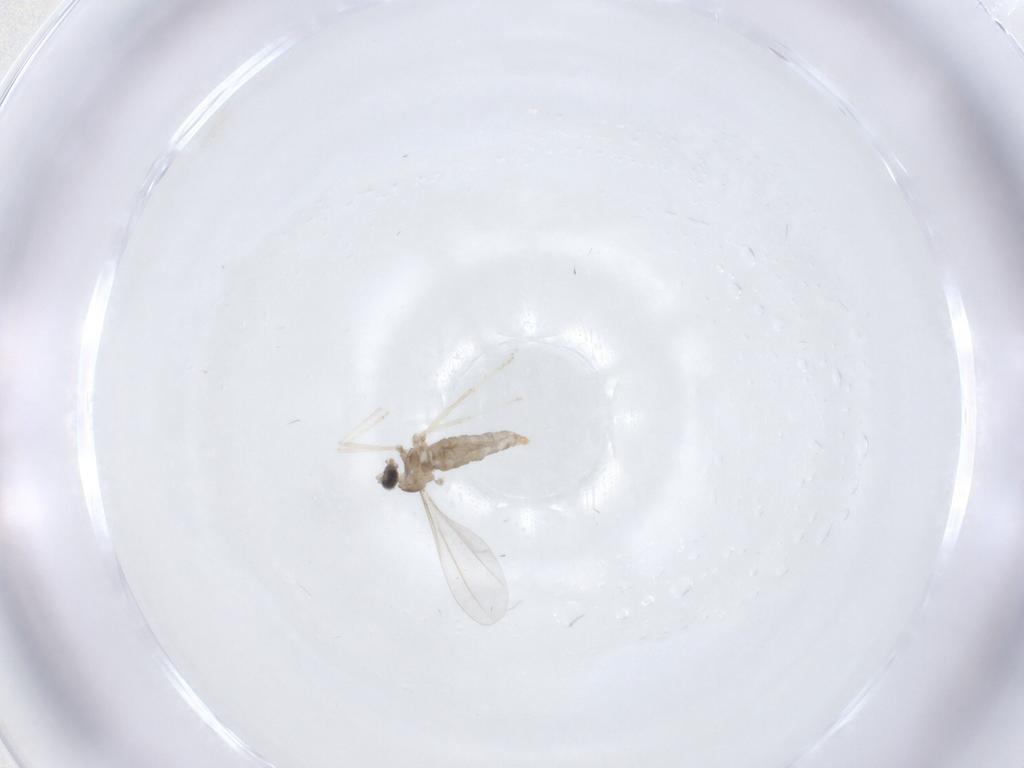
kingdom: Animalia
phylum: Arthropoda
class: Insecta
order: Diptera
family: Cecidomyiidae
